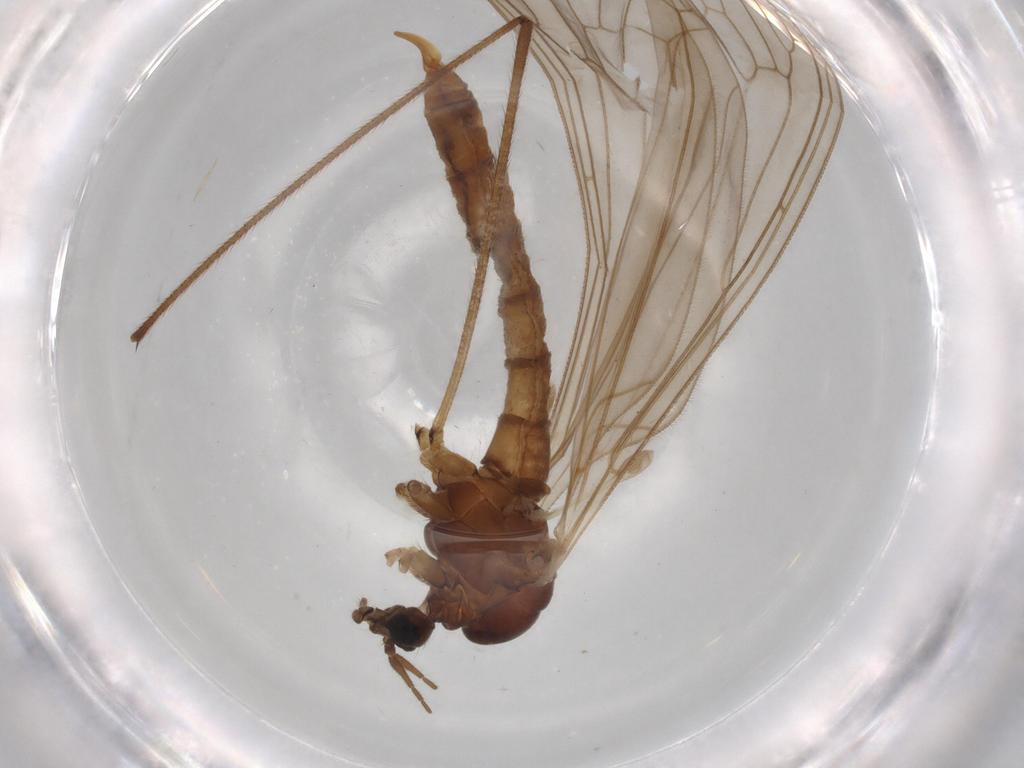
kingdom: Animalia
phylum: Arthropoda
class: Insecta
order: Diptera
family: Trichoceridae
